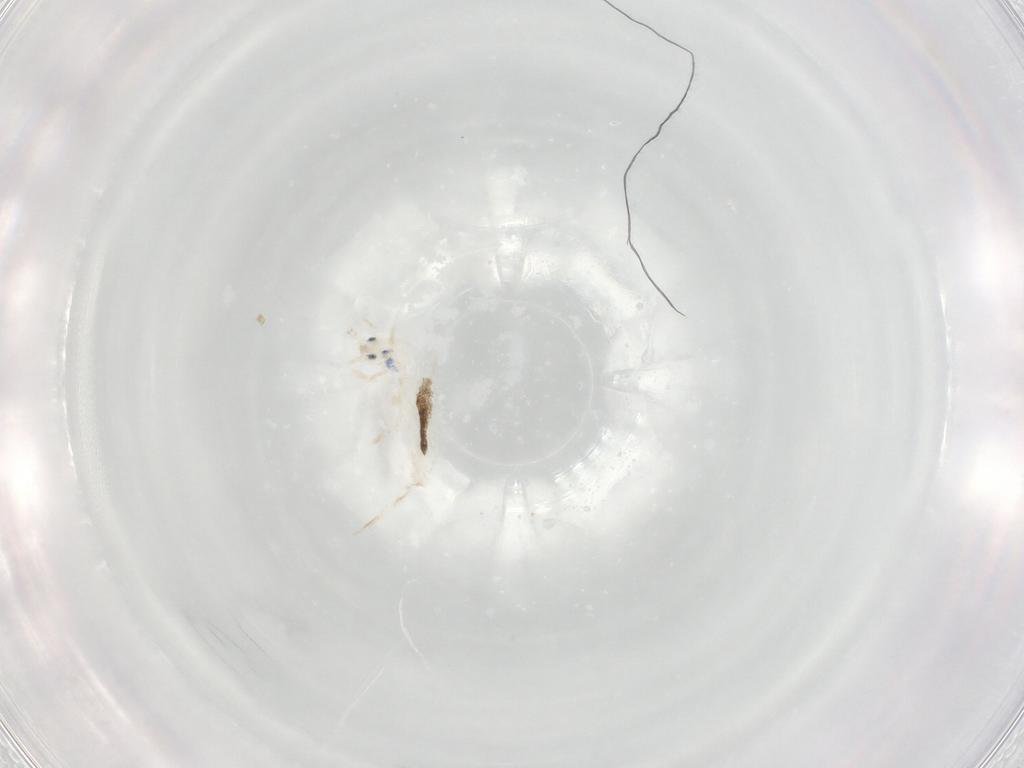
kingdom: Animalia
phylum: Arthropoda
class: Collembola
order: Entomobryomorpha
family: Entomobryidae
